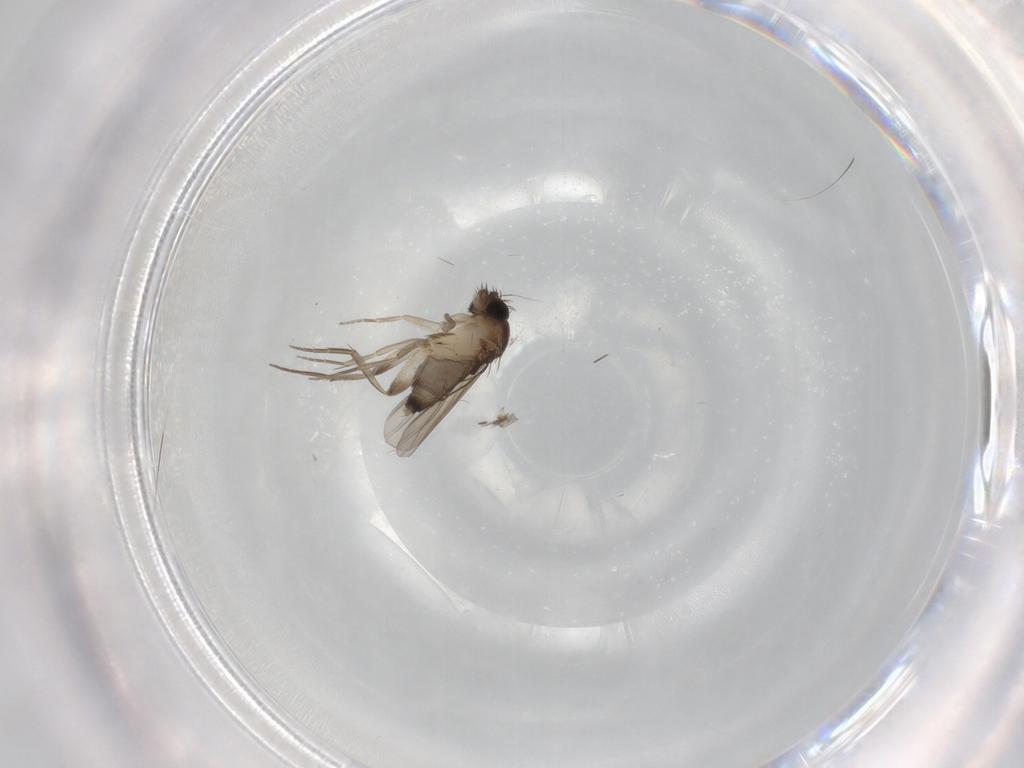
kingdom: Animalia
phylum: Arthropoda
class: Insecta
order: Diptera
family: Phoridae
